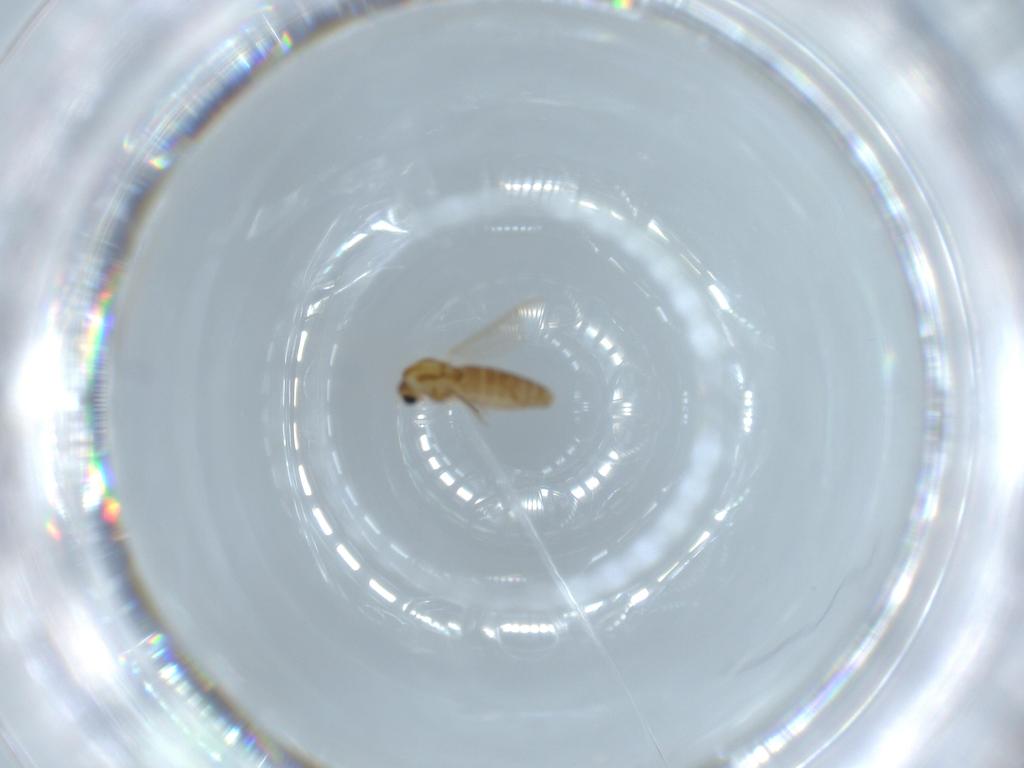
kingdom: Animalia
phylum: Arthropoda
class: Insecta
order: Diptera
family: Chironomidae
